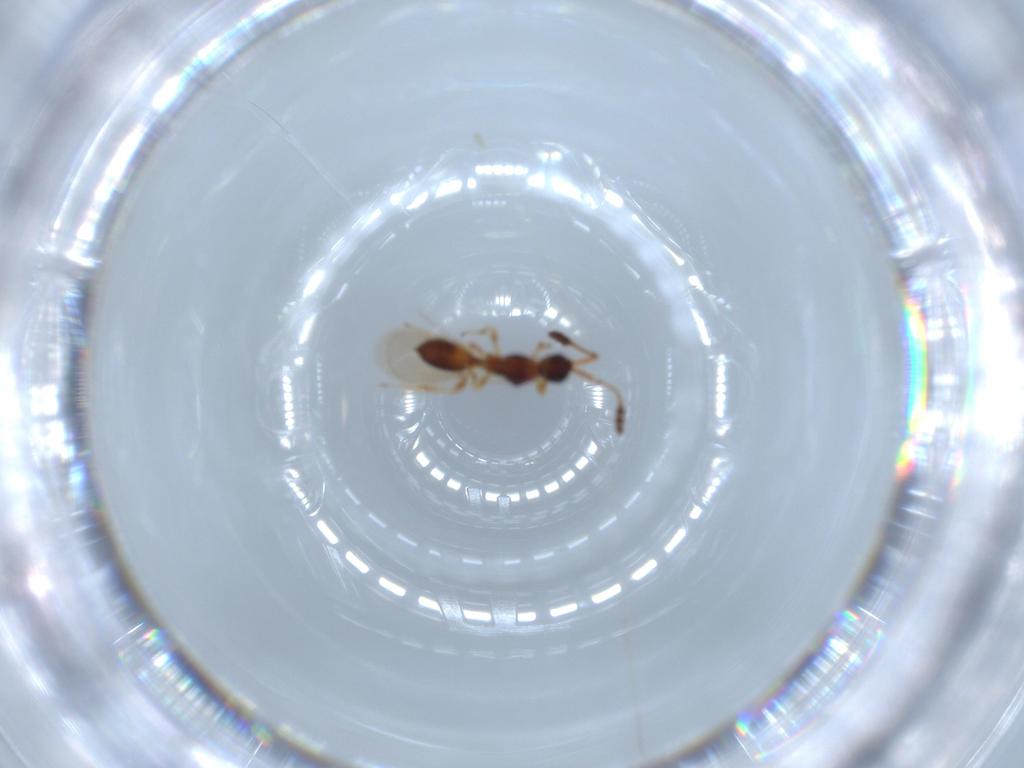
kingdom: Animalia
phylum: Arthropoda
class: Insecta
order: Hymenoptera
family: Diapriidae
